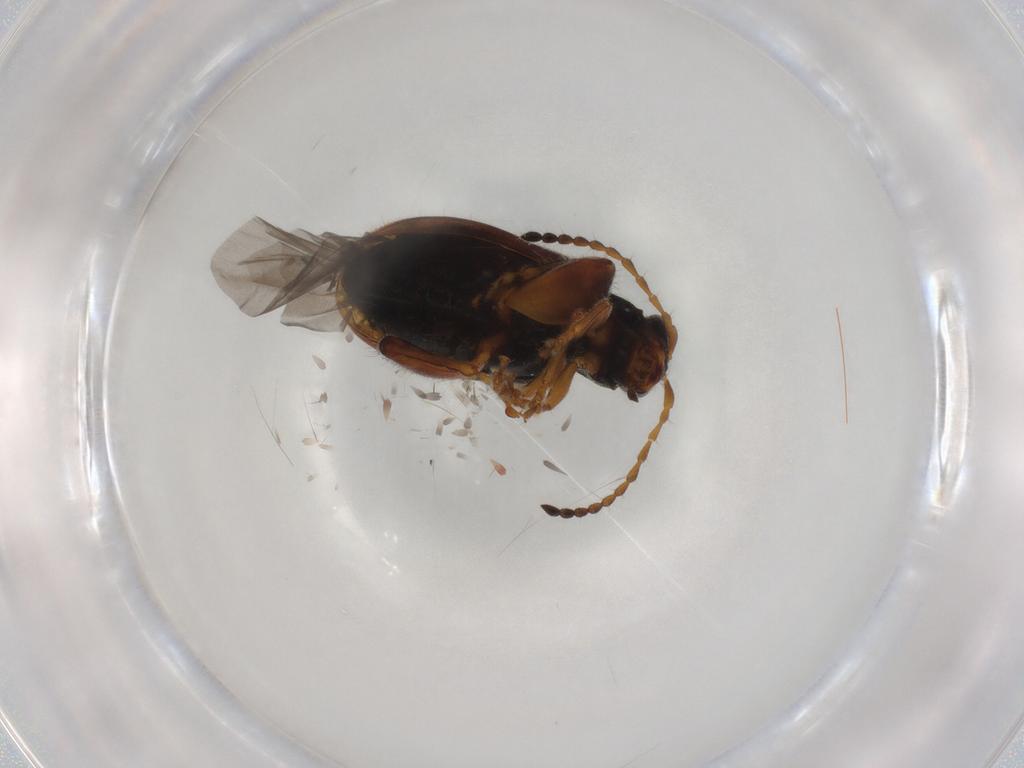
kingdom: Animalia
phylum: Arthropoda
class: Insecta
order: Coleoptera
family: Chrysomelidae
